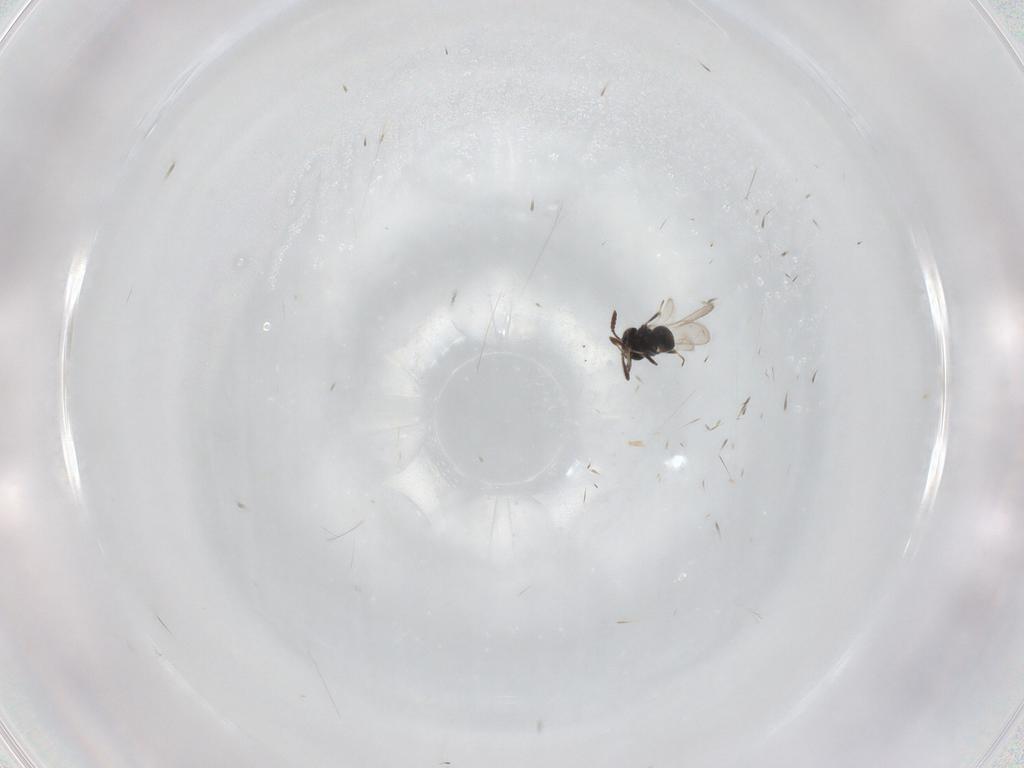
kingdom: Animalia
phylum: Arthropoda
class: Insecta
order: Hymenoptera
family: Scelionidae
